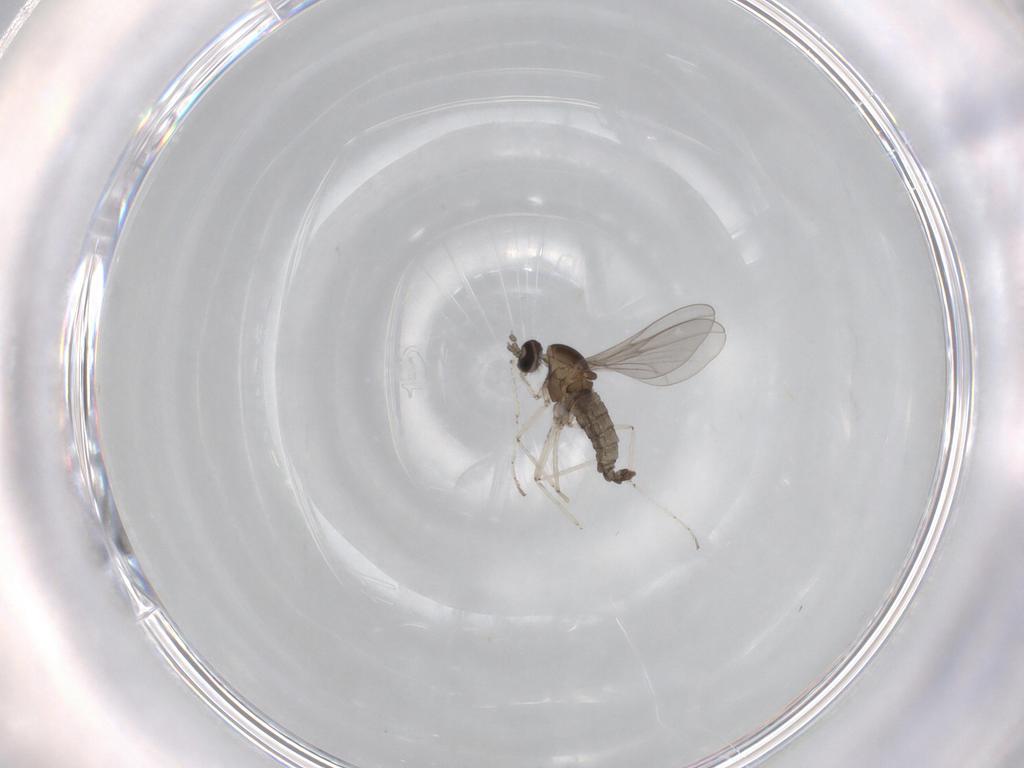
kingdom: Animalia
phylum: Arthropoda
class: Insecta
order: Diptera
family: Cecidomyiidae
